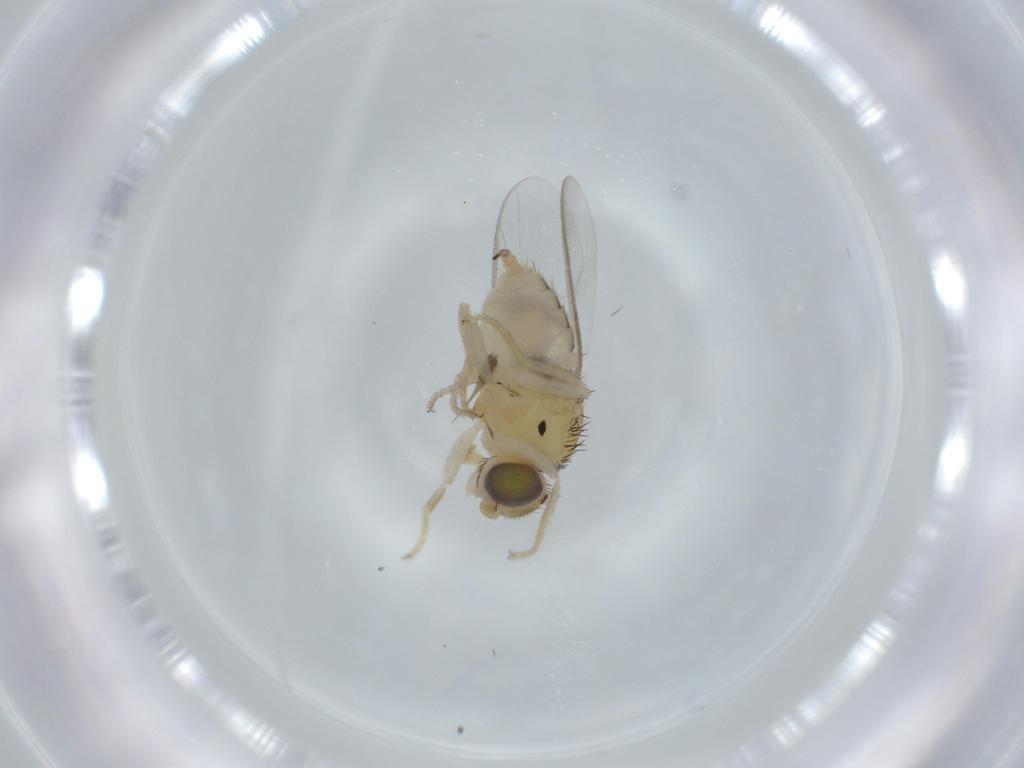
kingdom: Animalia
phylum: Arthropoda
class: Insecta
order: Diptera
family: Chloropidae
